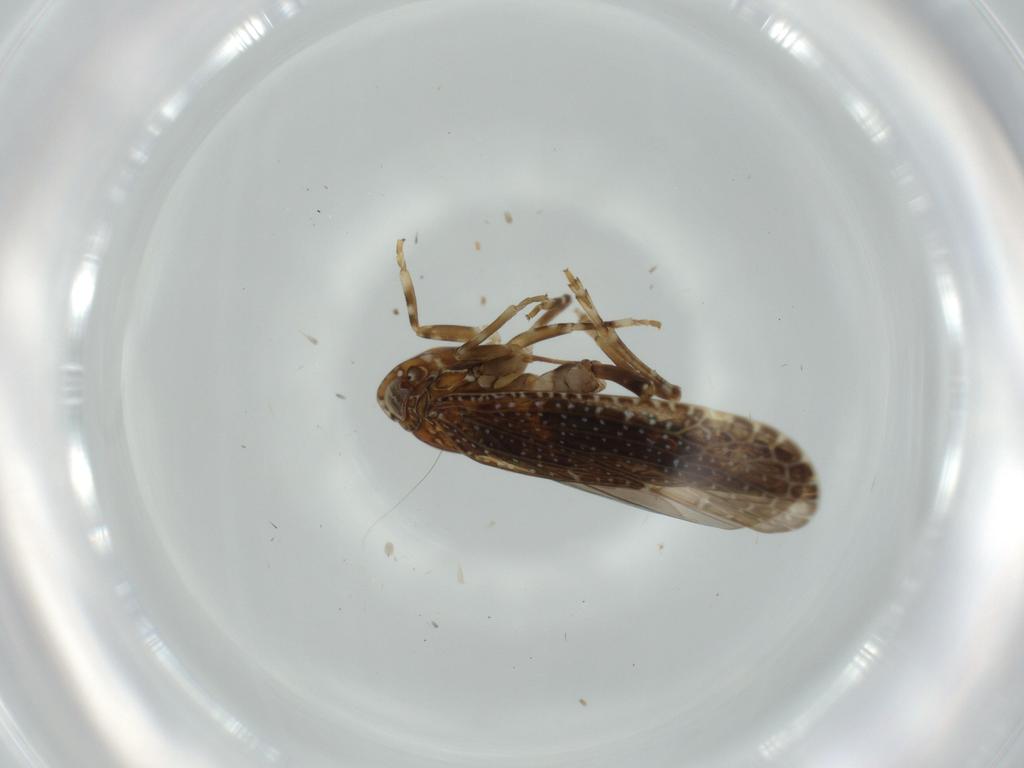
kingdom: Animalia
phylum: Arthropoda
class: Insecta
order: Hemiptera
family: Achilidae
